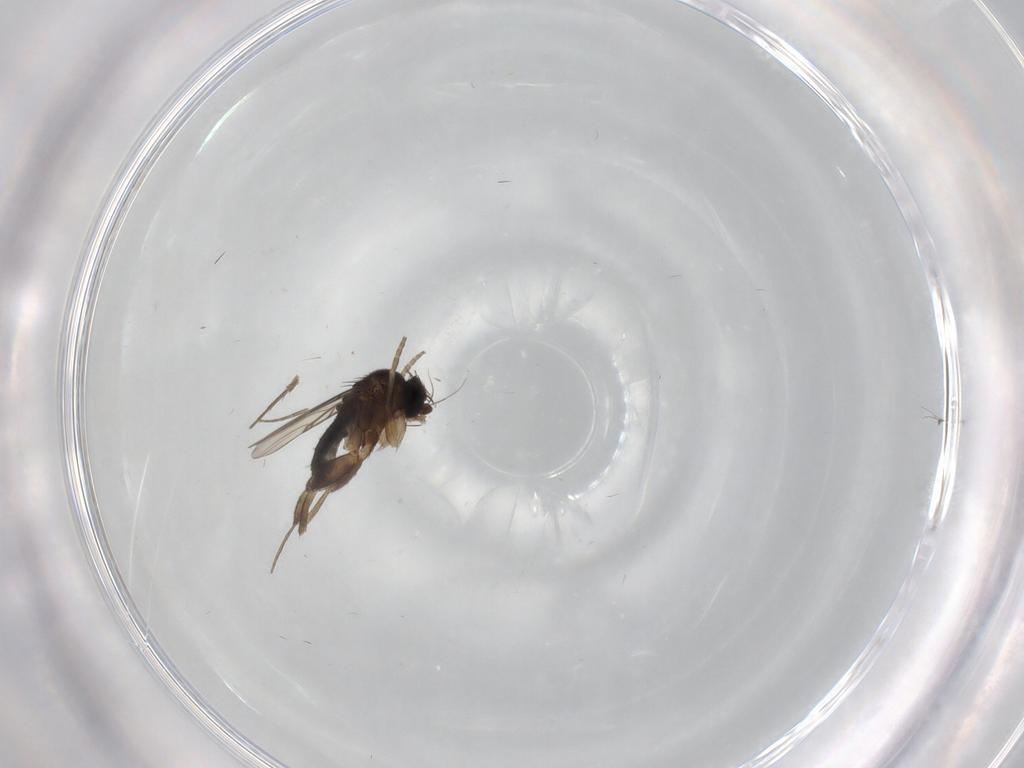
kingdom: Animalia
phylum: Arthropoda
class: Insecta
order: Diptera
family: Phoridae
